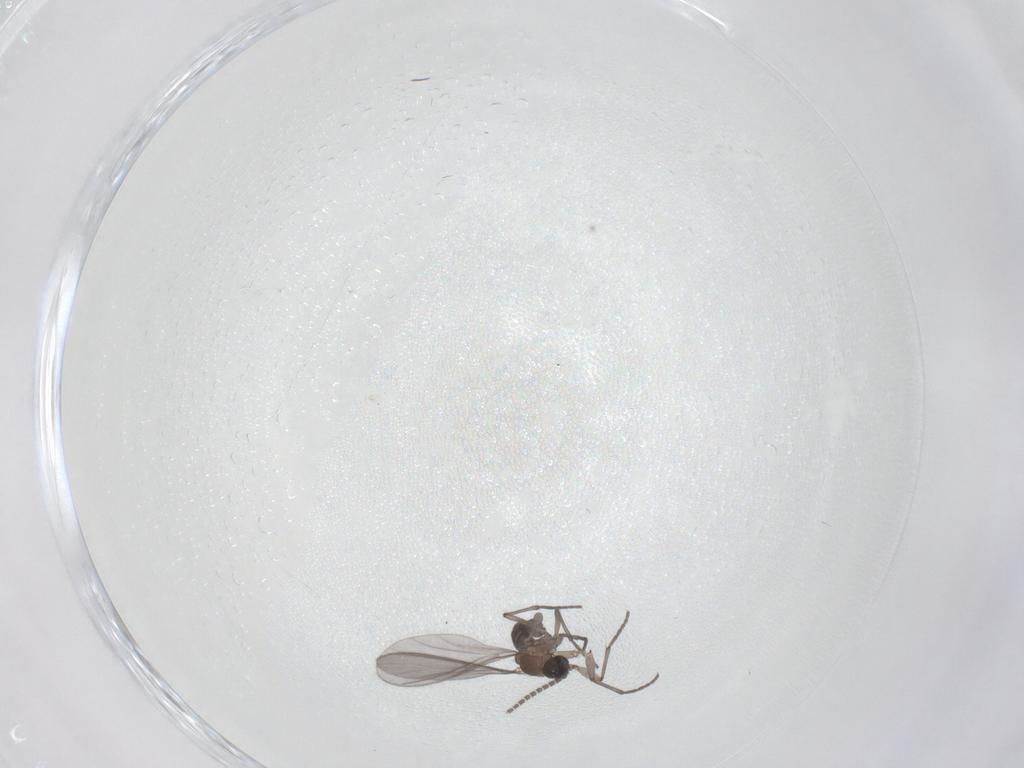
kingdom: Animalia
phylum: Arthropoda
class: Insecta
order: Diptera
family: Sciaridae
